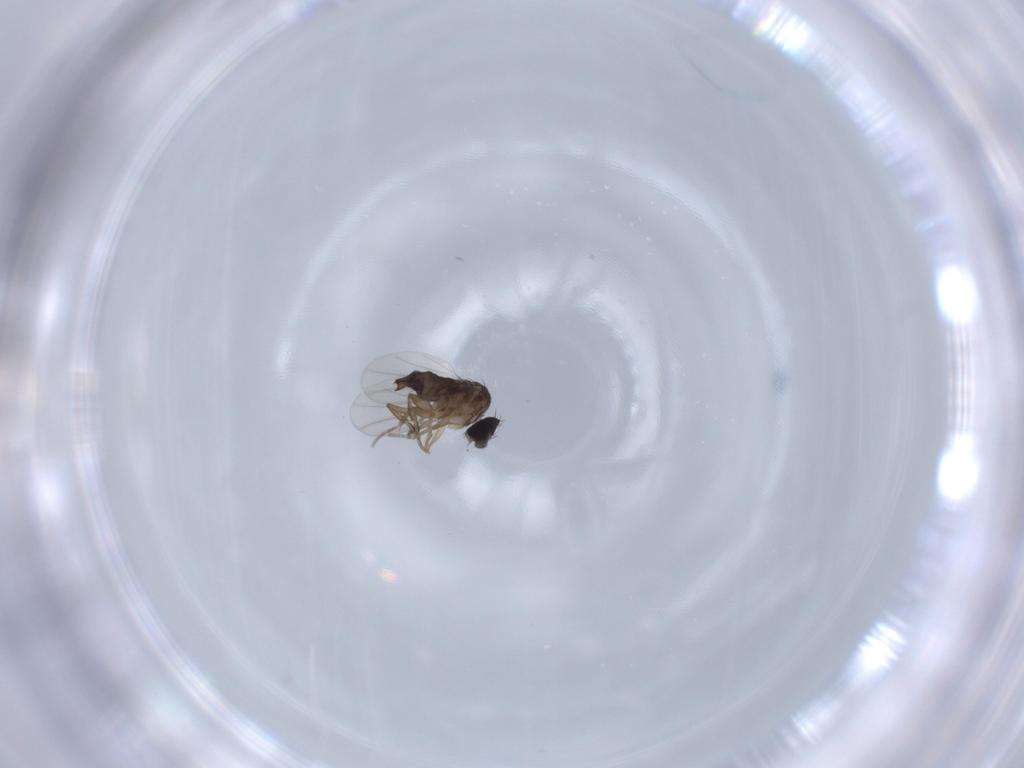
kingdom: Animalia
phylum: Arthropoda
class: Insecta
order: Diptera
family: Phoridae
